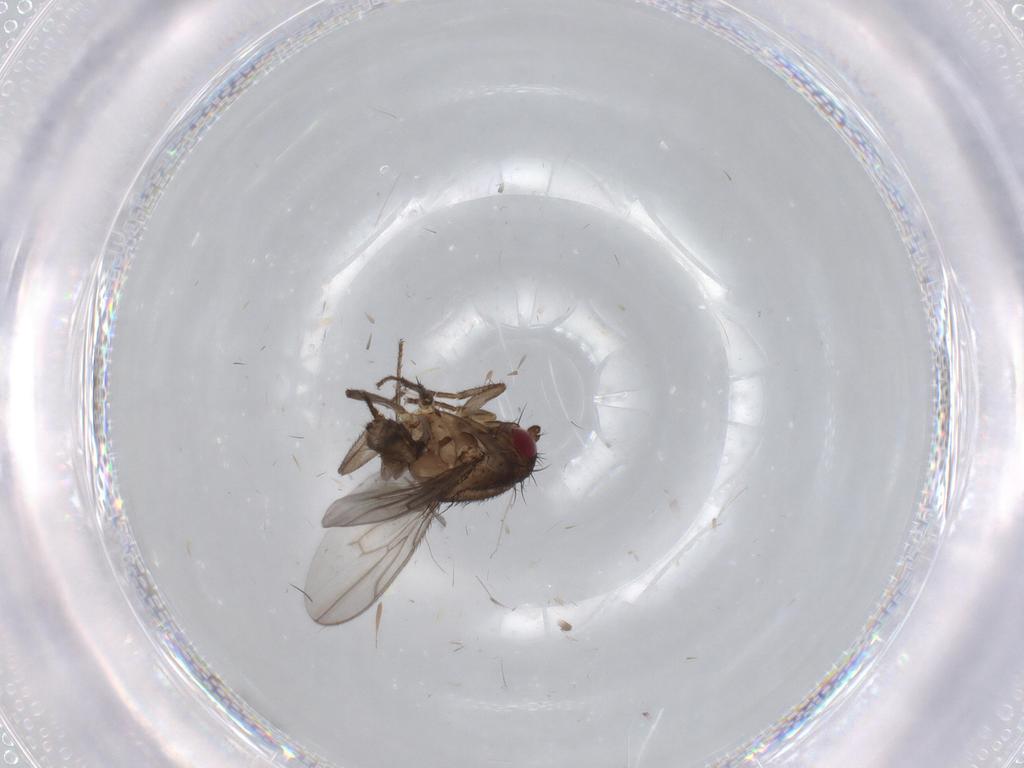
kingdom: Animalia
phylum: Arthropoda
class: Insecta
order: Diptera
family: Sphaeroceridae
